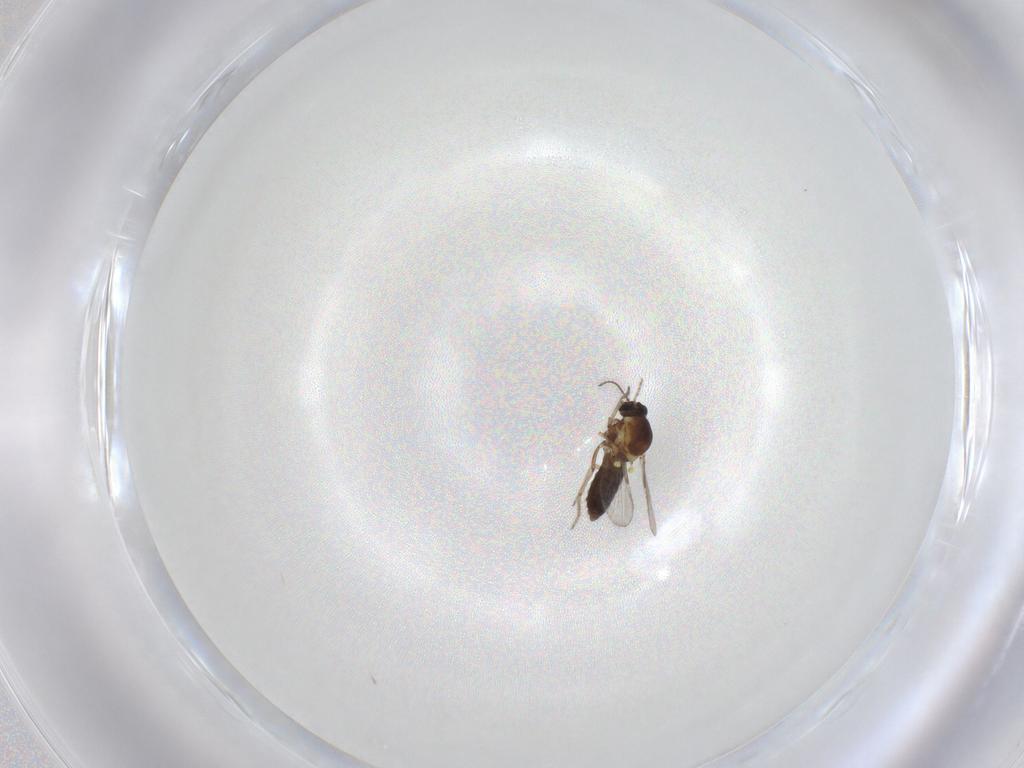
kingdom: Animalia
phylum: Arthropoda
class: Insecta
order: Diptera
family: Ceratopogonidae
